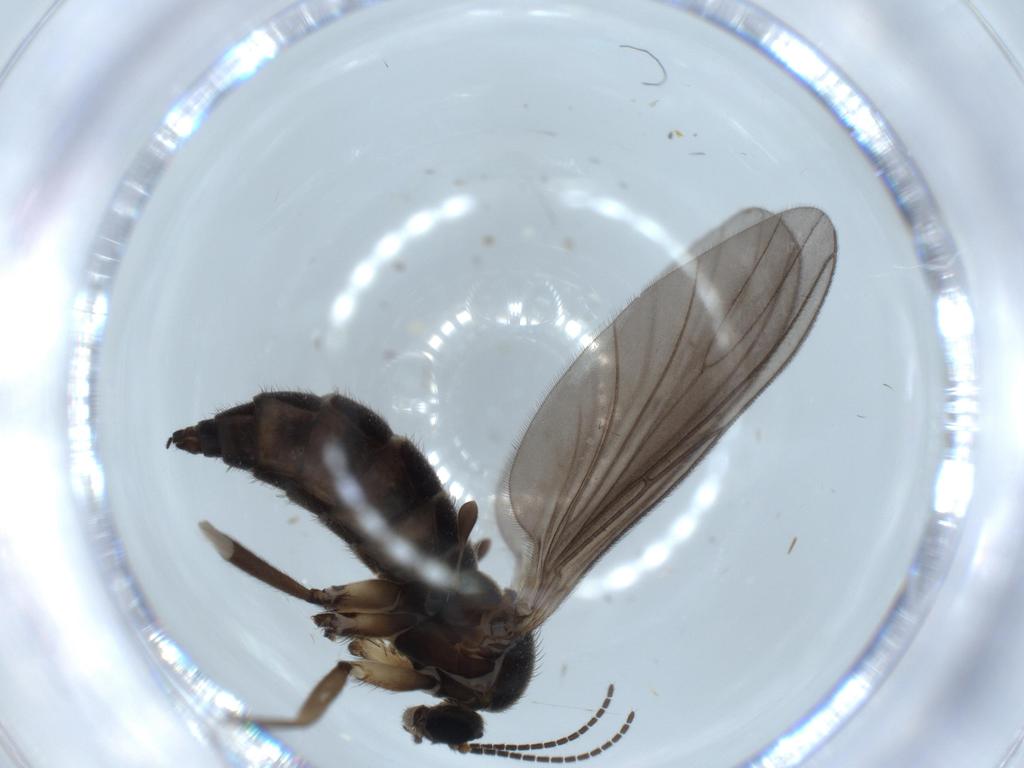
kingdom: Animalia
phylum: Arthropoda
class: Insecta
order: Diptera
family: Sciaridae
